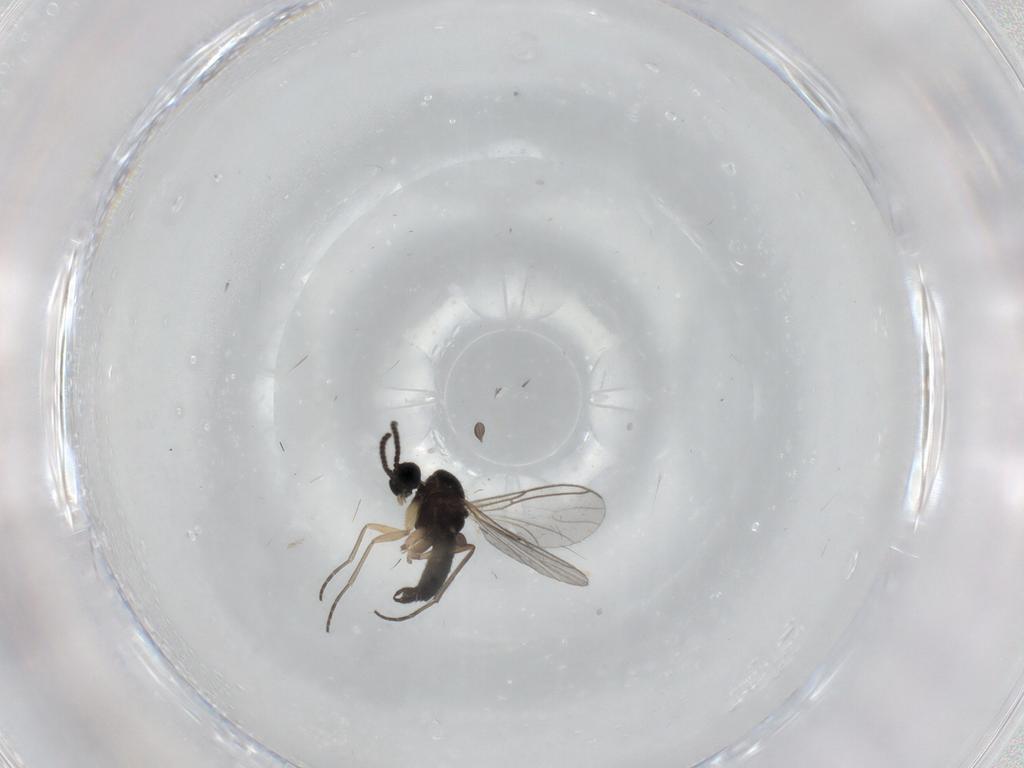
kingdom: Animalia
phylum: Arthropoda
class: Insecta
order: Diptera
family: Sciaridae
